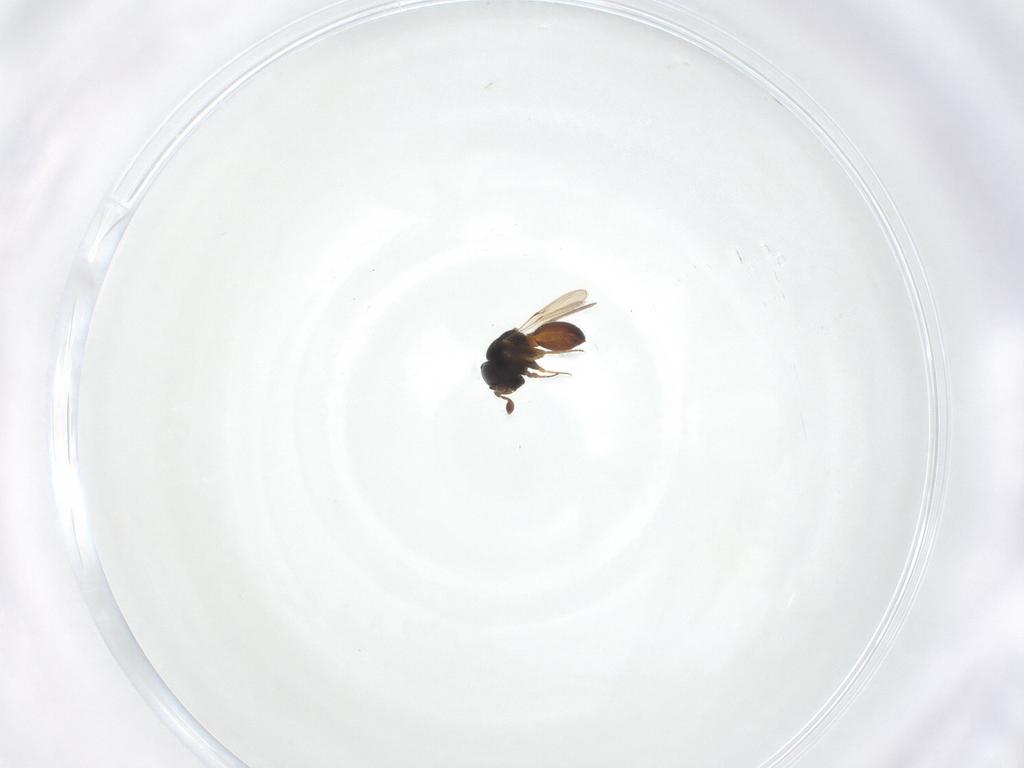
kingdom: Animalia
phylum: Arthropoda
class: Insecta
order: Hymenoptera
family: Scelionidae
